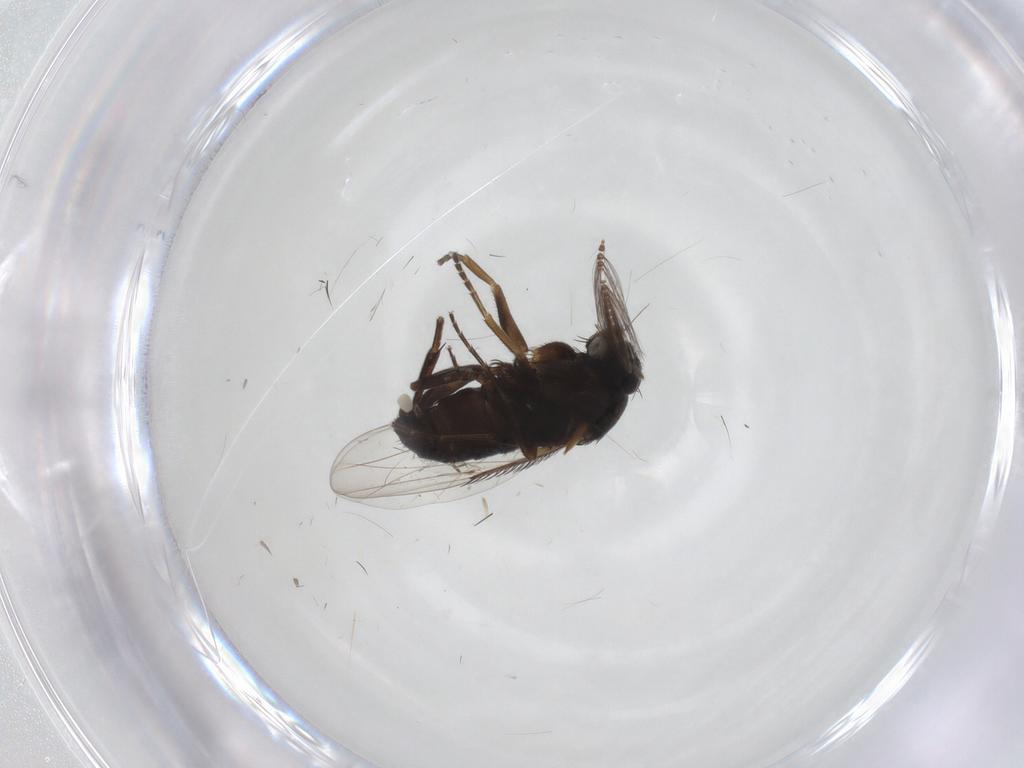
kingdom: Animalia
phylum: Arthropoda
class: Insecta
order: Diptera
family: Phoridae
